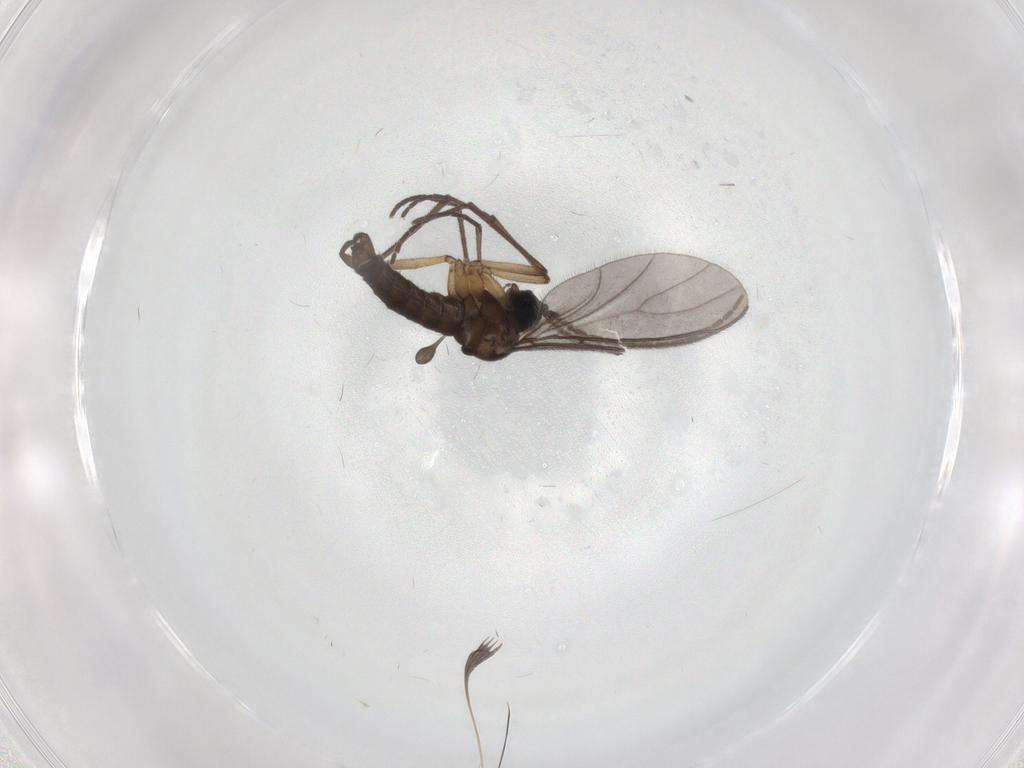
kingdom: Animalia
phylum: Arthropoda
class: Insecta
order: Diptera
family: Sciaridae
